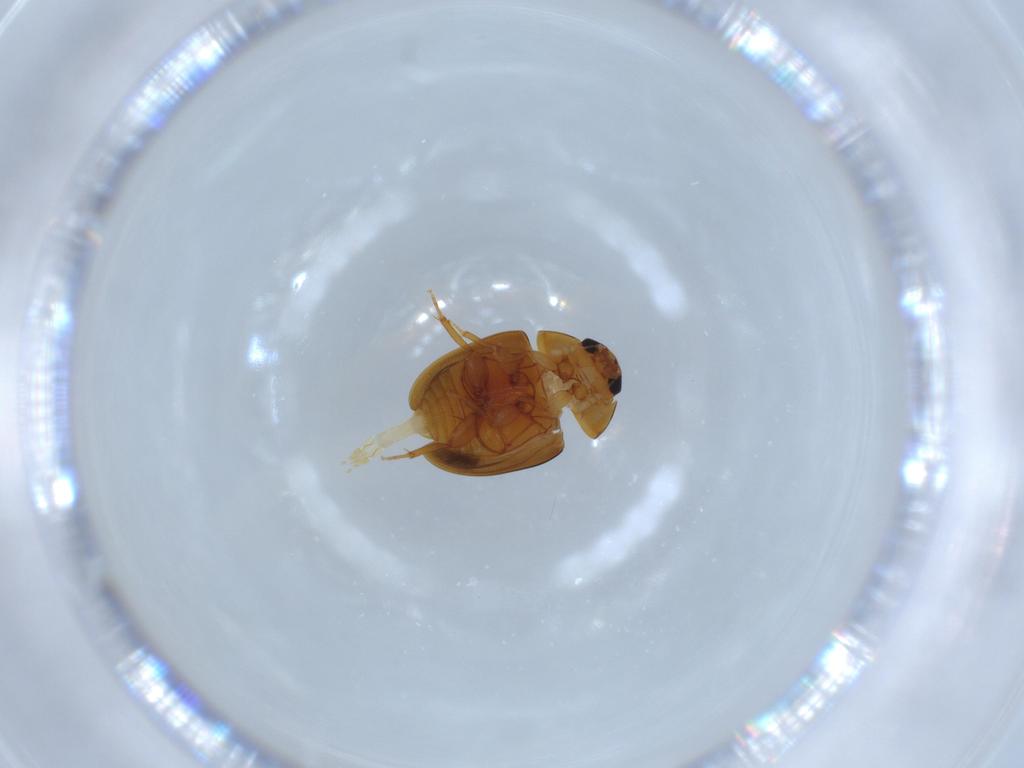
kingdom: Animalia
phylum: Arthropoda
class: Insecta
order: Coleoptera
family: Phalacridae
